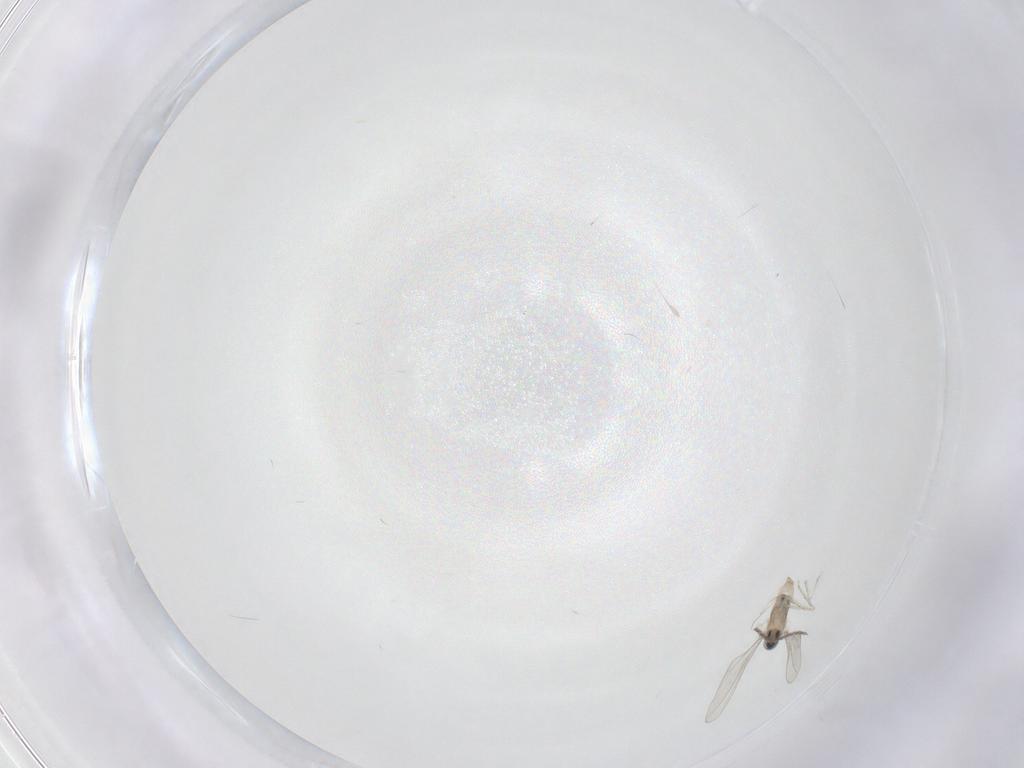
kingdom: Animalia
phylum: Arthropoda
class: Insecta
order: Diptera
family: Cecidomyiidae
